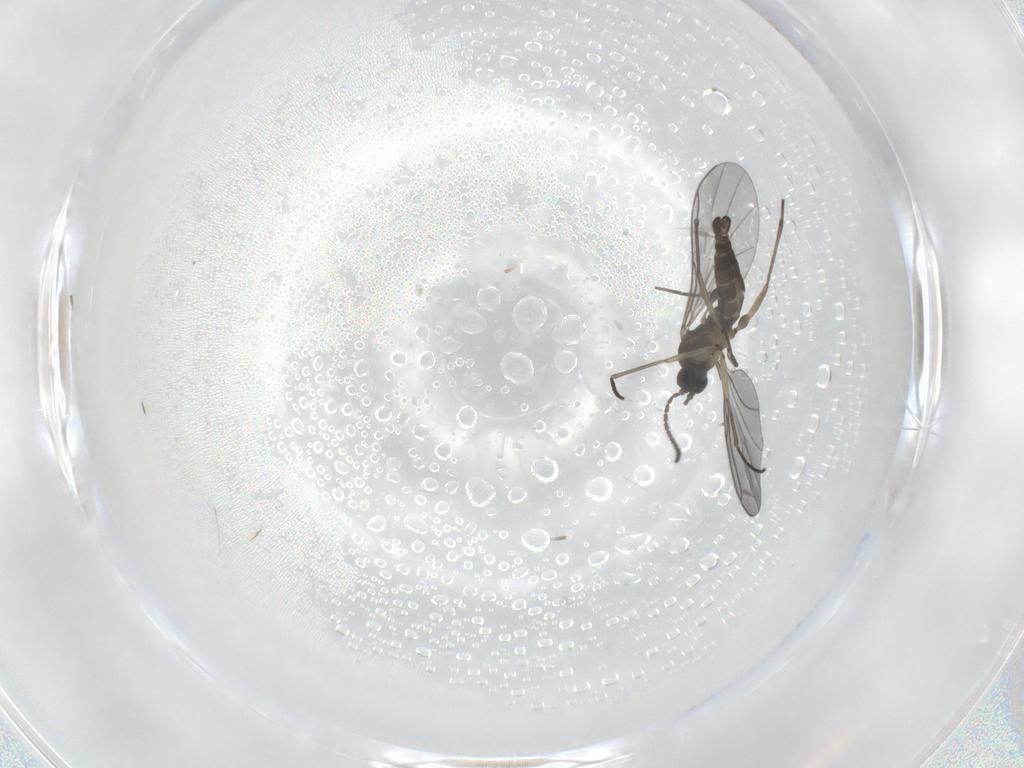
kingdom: Animalia
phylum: Arthropoda
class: Insecta
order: Diptera
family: Sciaridae
